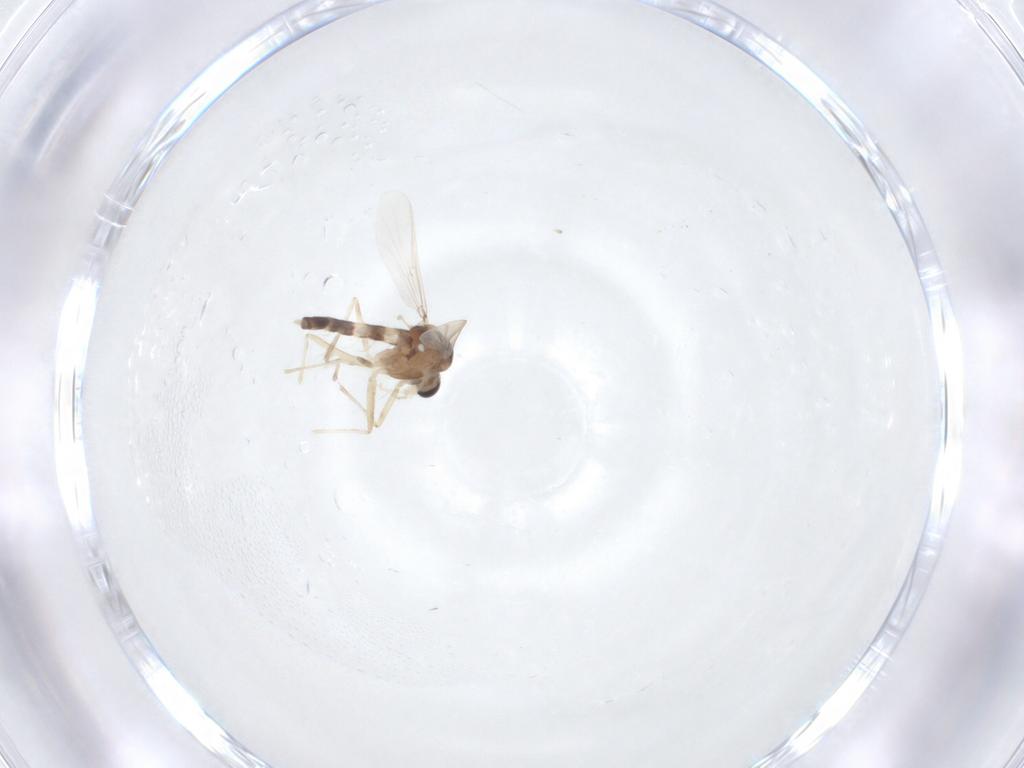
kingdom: Animalia
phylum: Arthropoda
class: Insecta
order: Diptera
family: Chironomidae
